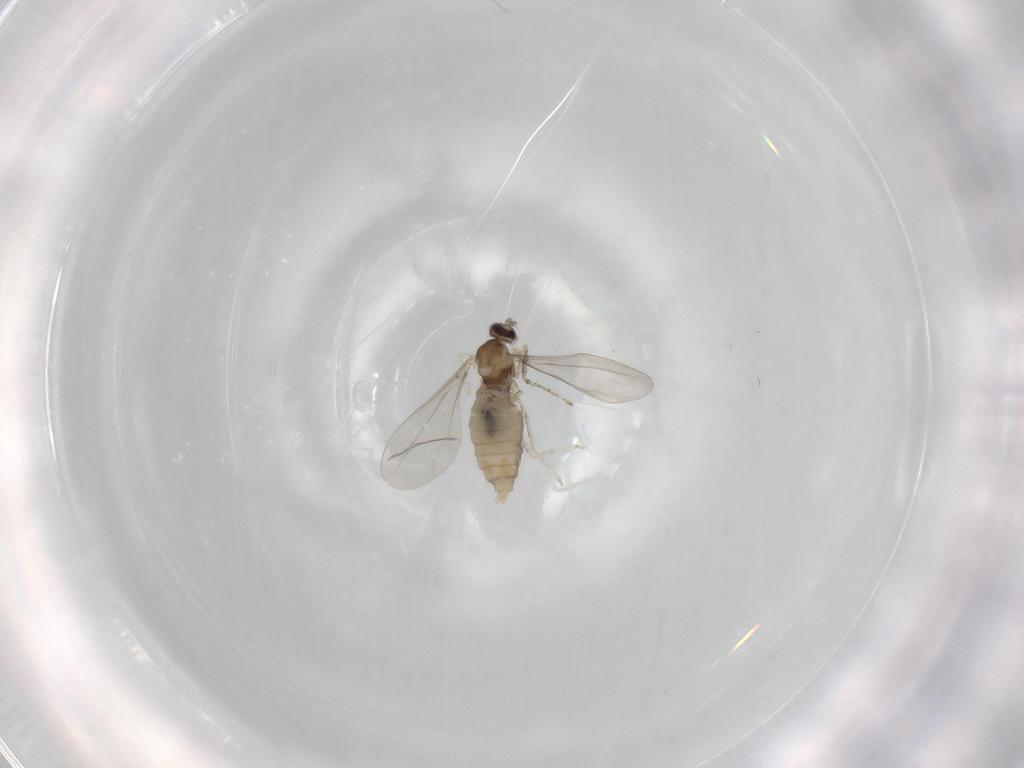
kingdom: Animalia
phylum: Arthropoda
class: Insecta
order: Diptera
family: Cecidomyiidae
